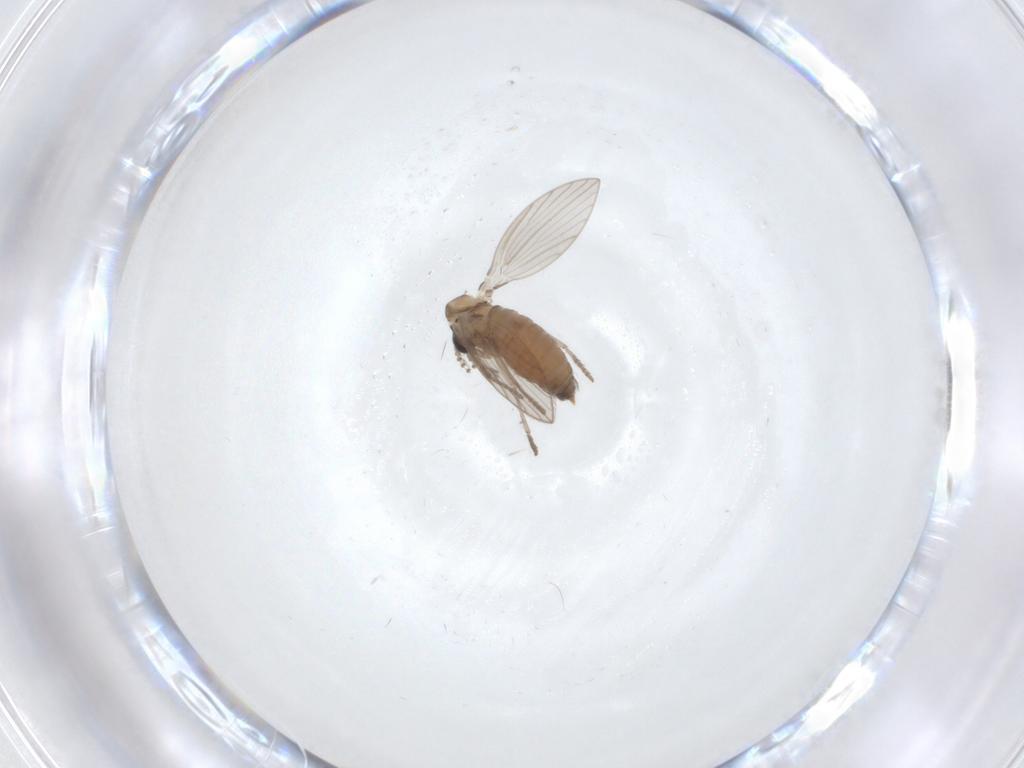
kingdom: Animalia
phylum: Arthropoda
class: Insecta
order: Diptera
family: Psychodidae
